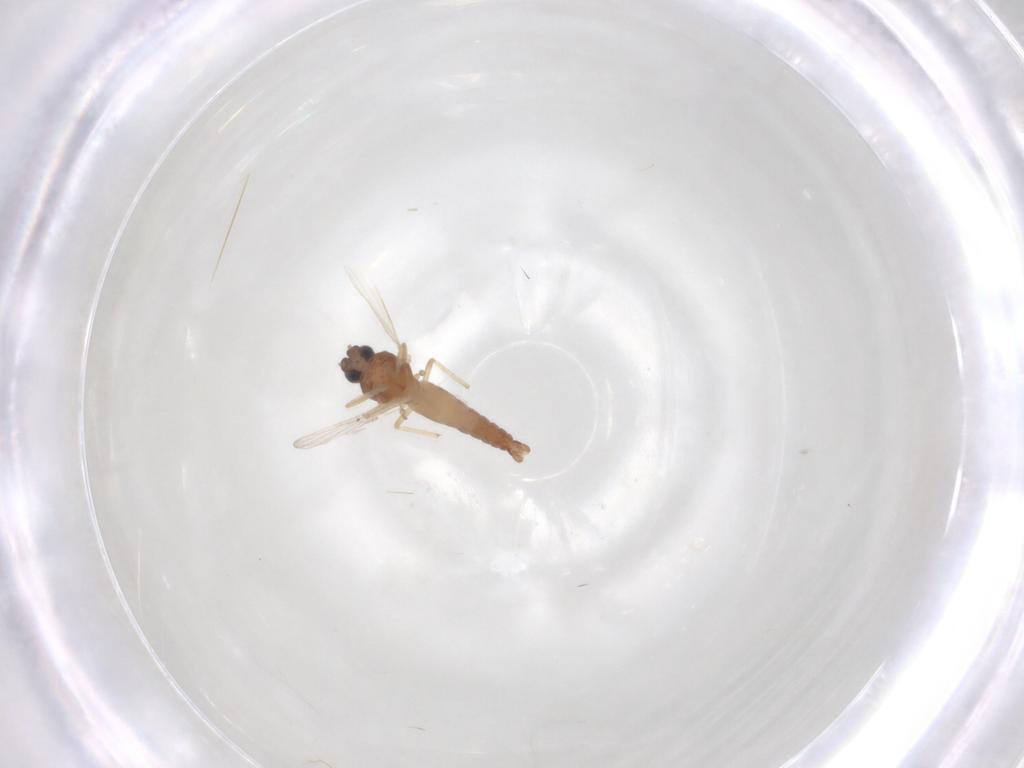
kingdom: Animalia
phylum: Arthropoda
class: Insecta
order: Diptera
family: Ceratopogonidae
